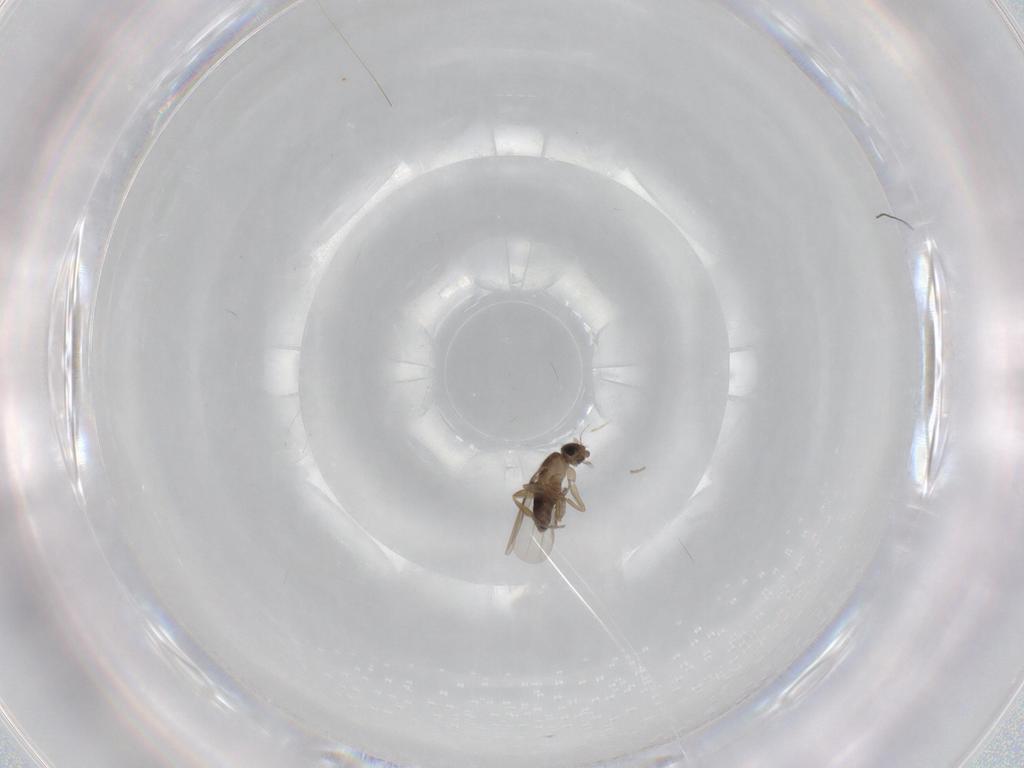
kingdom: Animalia
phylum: Arthropoda
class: Insecta
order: Diptera
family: Phoridae
